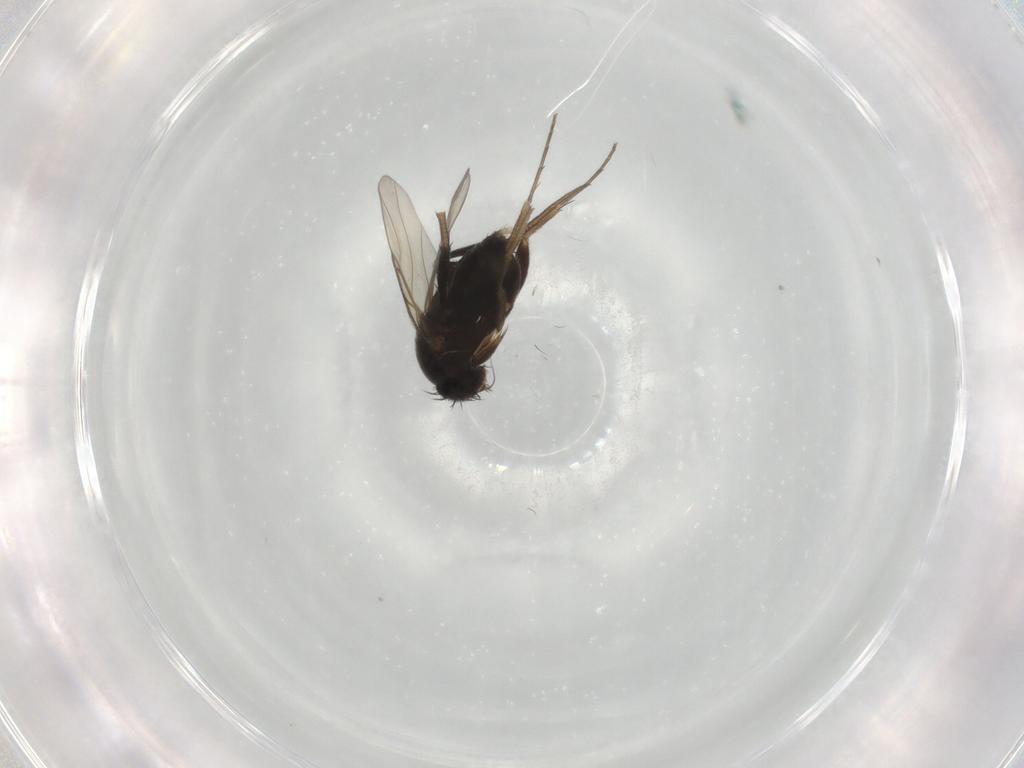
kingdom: Animalia
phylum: Arthropoda
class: Insecta
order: Diptera
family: Phoridae
